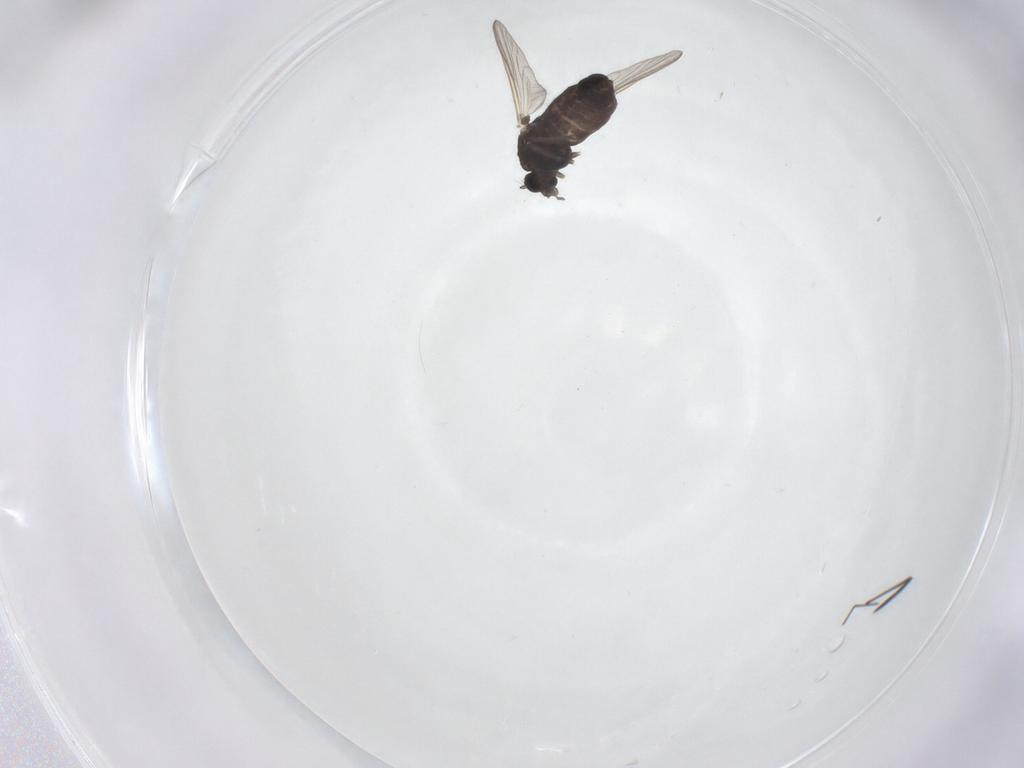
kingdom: Animalia
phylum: Arthropoda
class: Insecta
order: Diptera
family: Chironomidae
